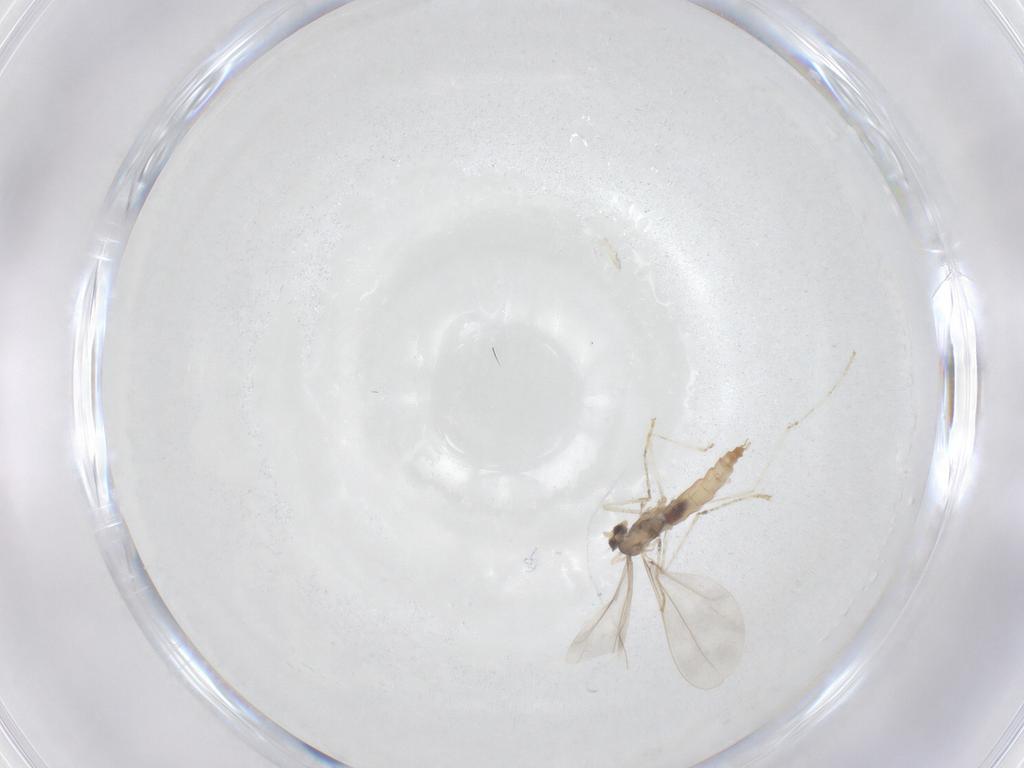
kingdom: Animalia
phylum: Arthropoda
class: Insecta
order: Diptera
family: Cecidomyiidae
